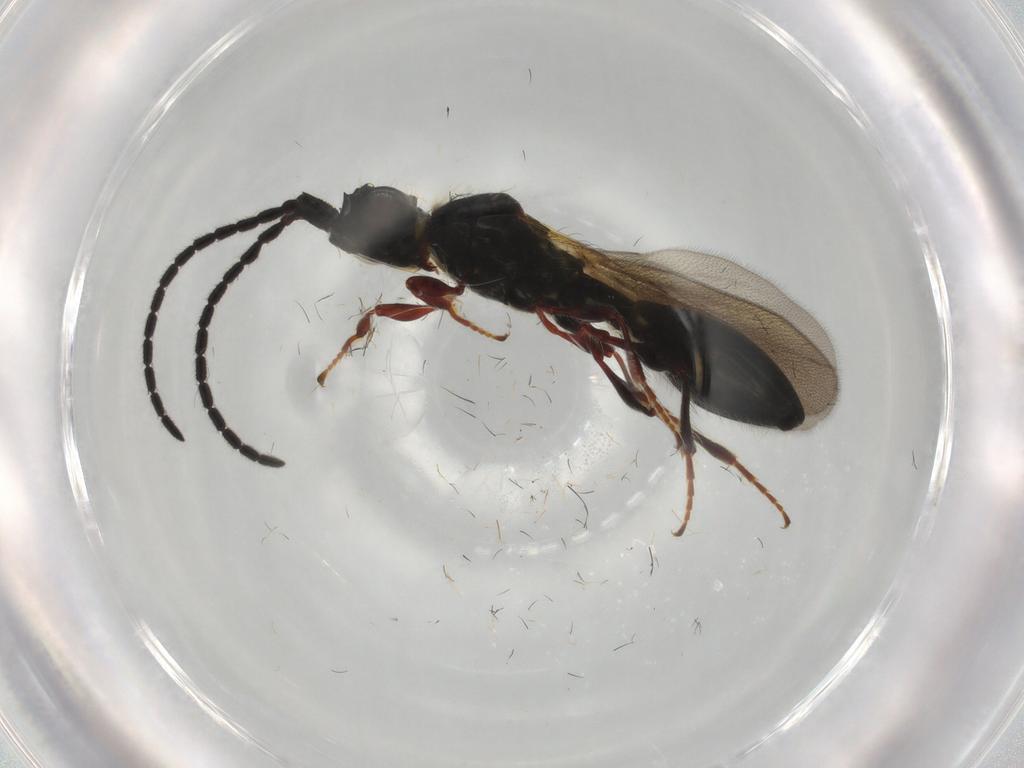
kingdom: Animalia
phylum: Arthropoda
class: Insecta
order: Hymenoptera
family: Diapriidae
